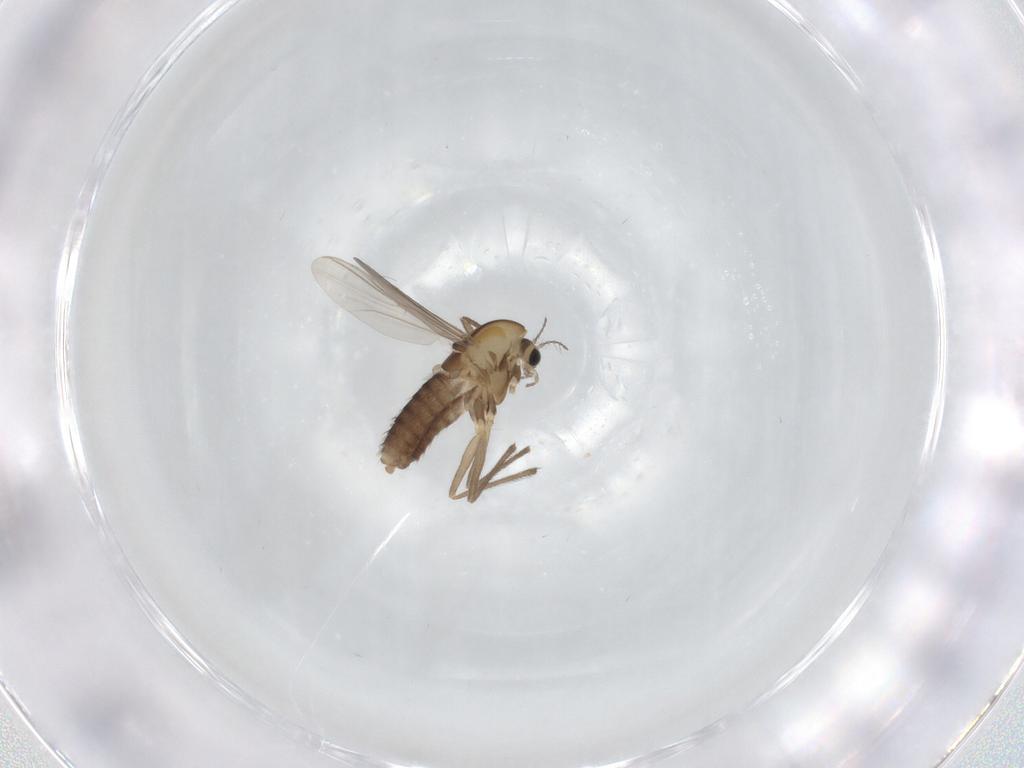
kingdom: Animalia
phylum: Arthropoda
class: Insecta
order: Diptera
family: Chironomidae
